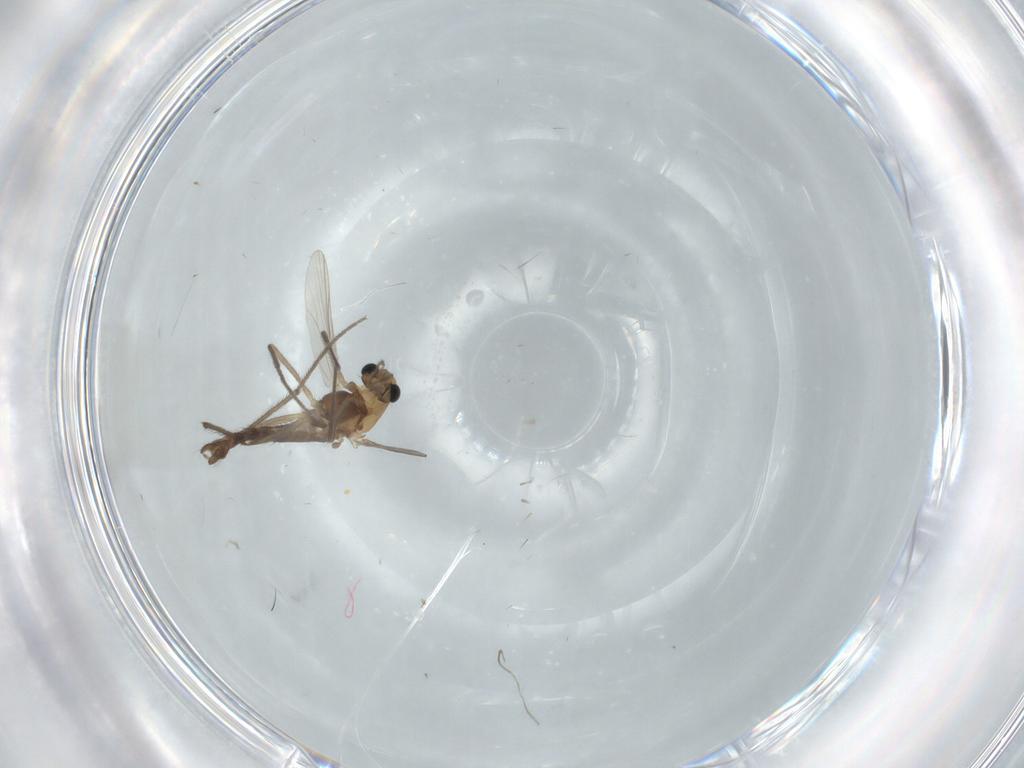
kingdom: Animalia
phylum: Arthropoda
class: Insecta
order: Diptera
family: Chironomidae
